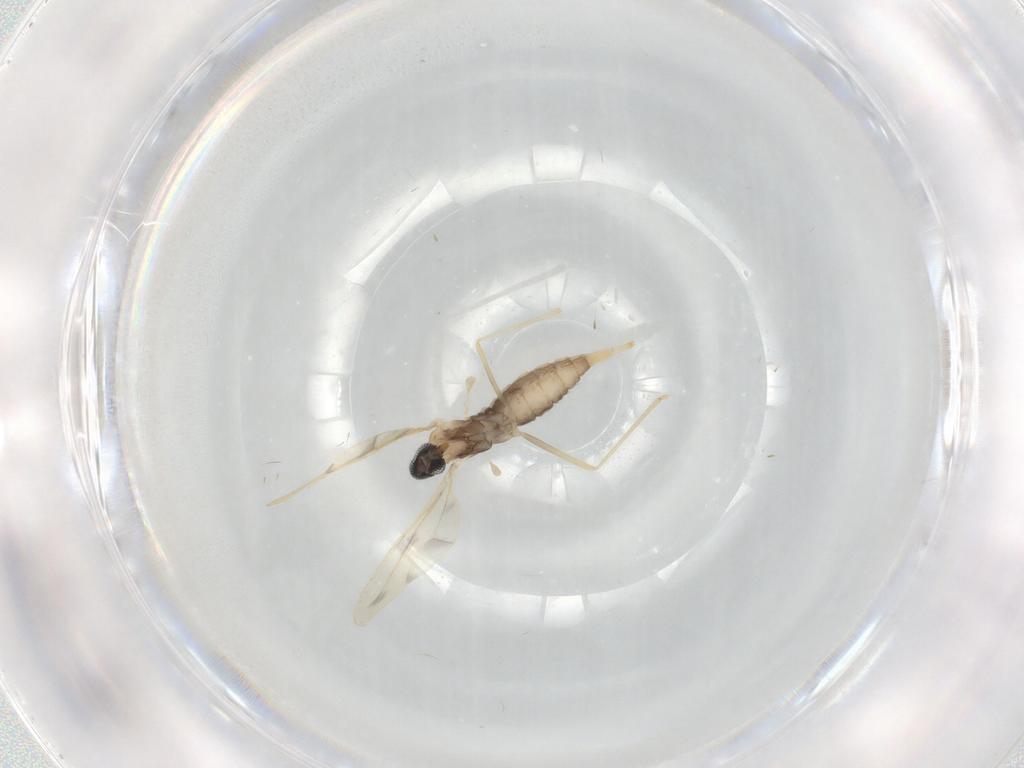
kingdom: Animalia
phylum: Arthropoda
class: Insecta
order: Diptera
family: Cecidomyiidae
